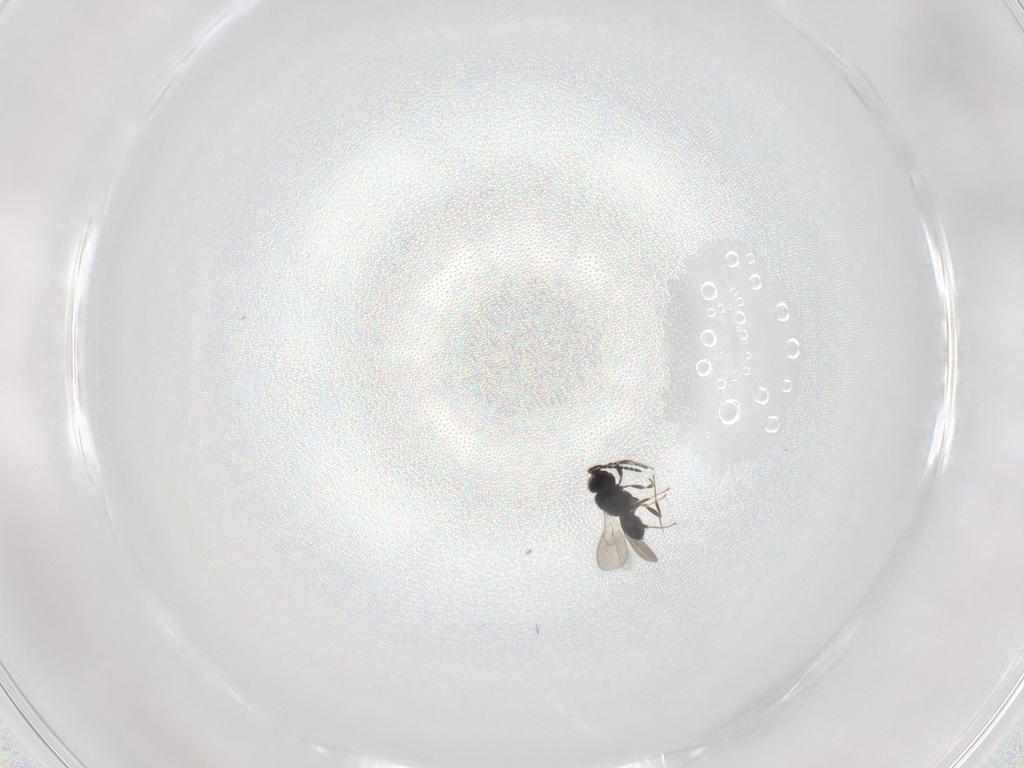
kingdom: Animalia
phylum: Arthropoda
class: Insecta
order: Hymenoptera
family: Scelionidae
